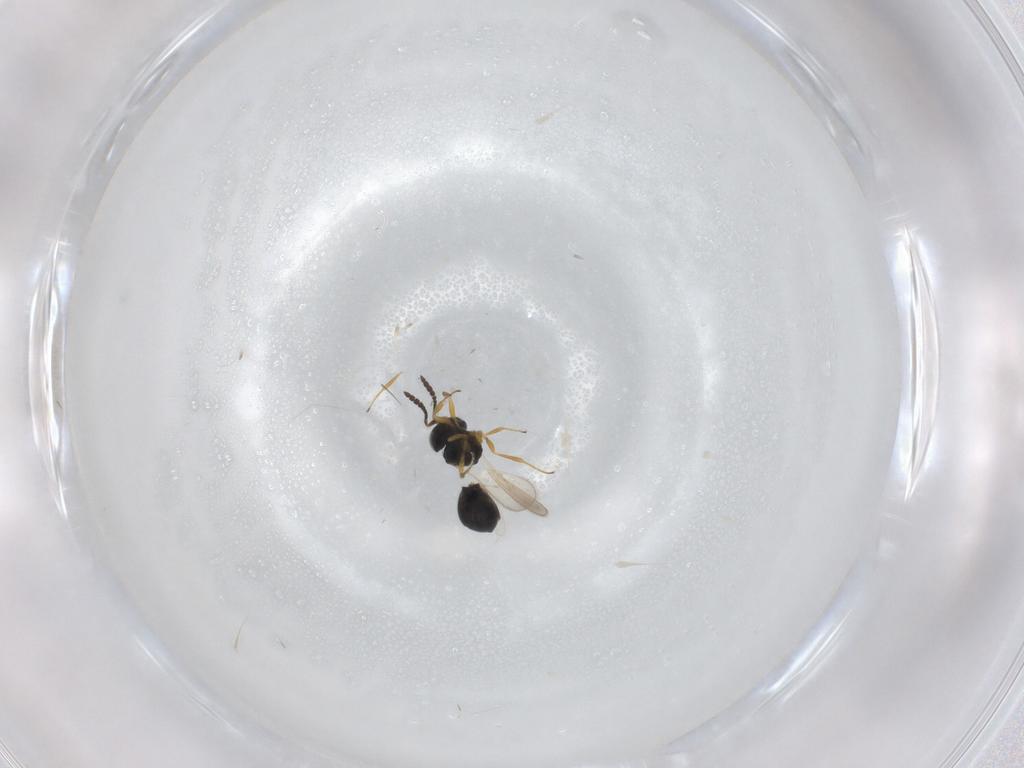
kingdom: Animalia
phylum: Arthropoda
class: Insecta
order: Hymenoptera
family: Scelionidae
